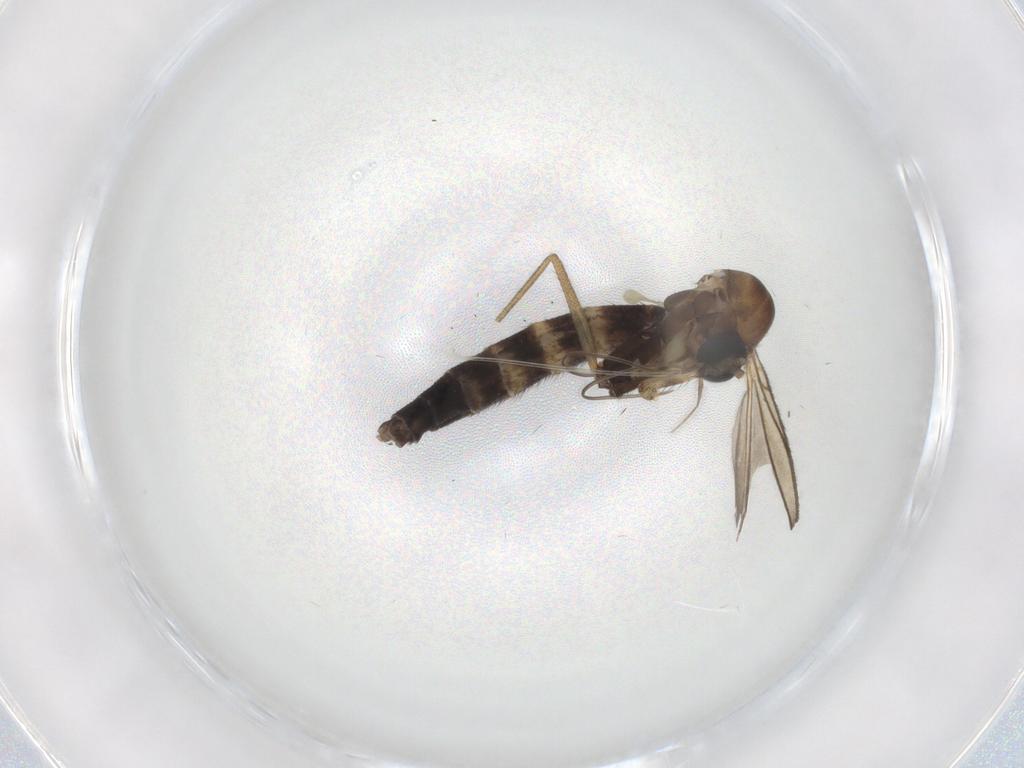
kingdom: Animalia
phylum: Arthropoda
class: Insecta
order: Diptera
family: Keroplatidae
